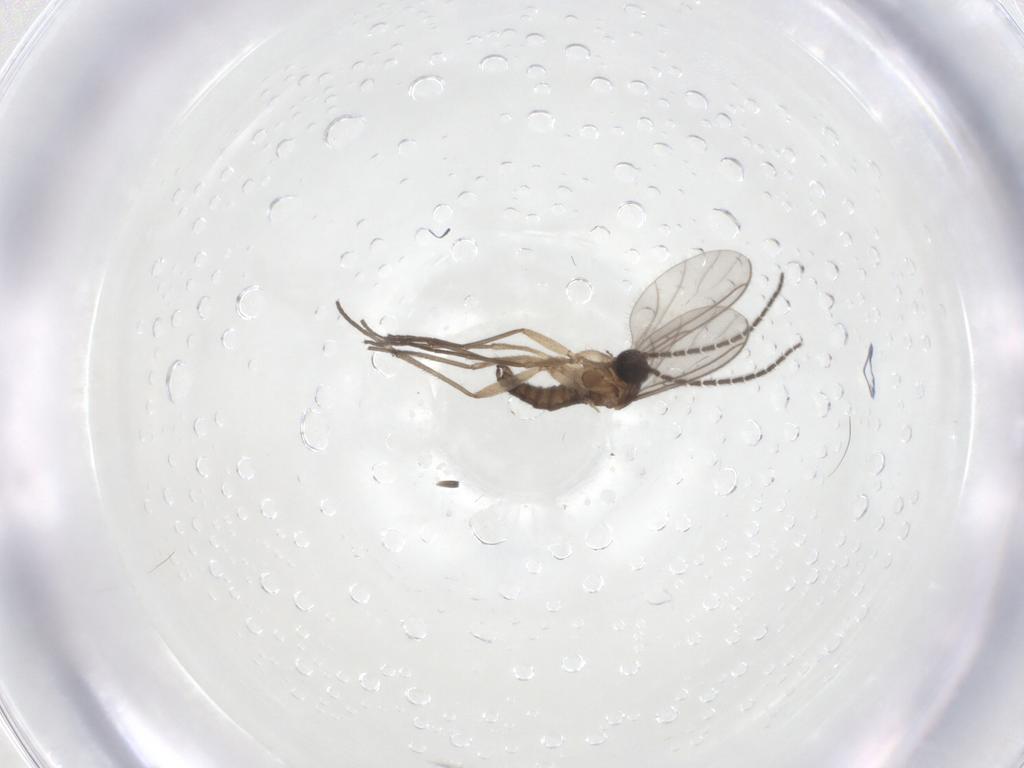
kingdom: Animalia
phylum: Arthropoda
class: Insecta
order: Diptera
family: Sciaridae
